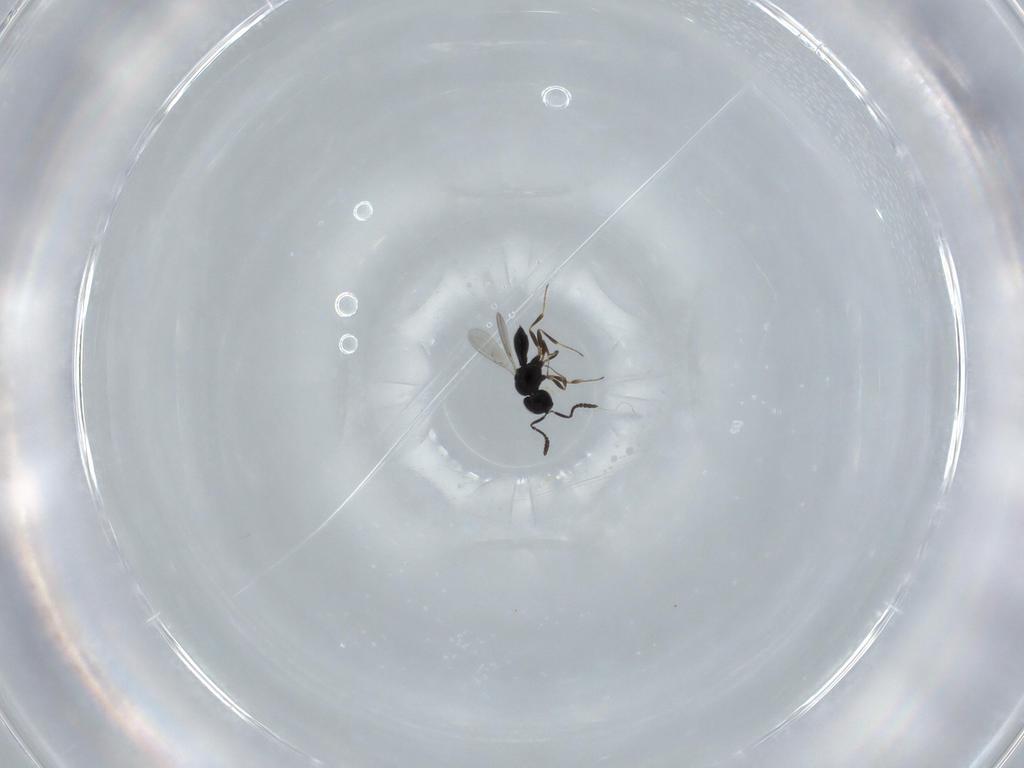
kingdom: Animalia
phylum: Arthropoda
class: Insecta
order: Hymenoptera
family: Scelionidae
